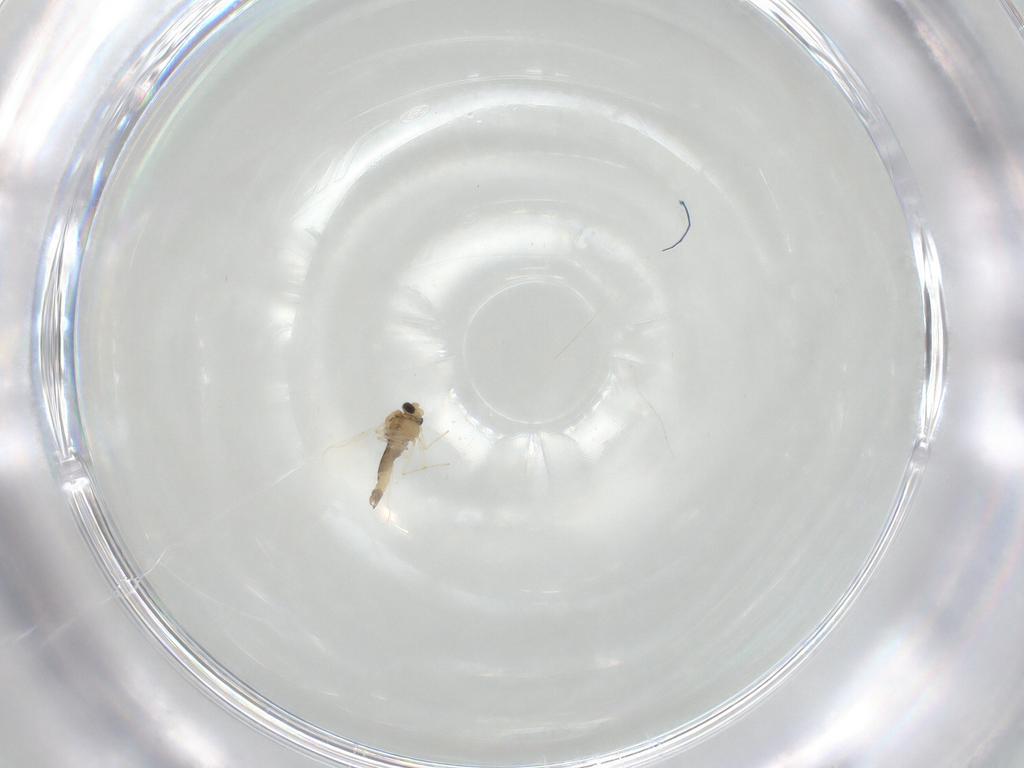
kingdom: Animalia
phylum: Arthropoda
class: Insecta
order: Diptera
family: Chironomidae
